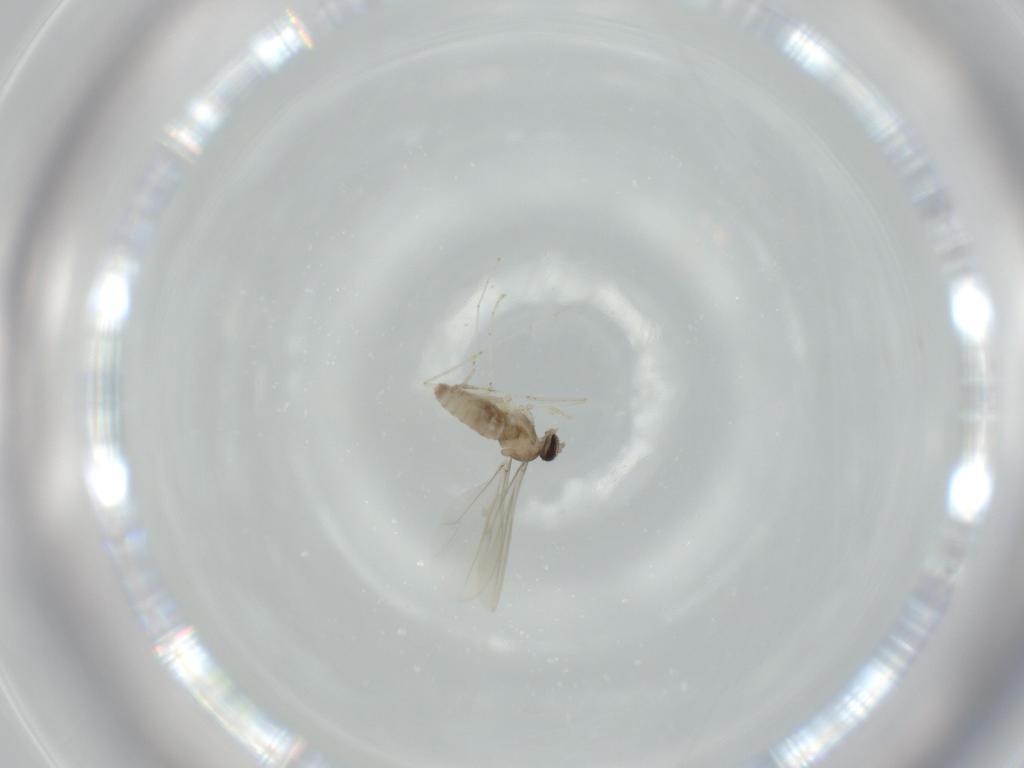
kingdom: Animalia
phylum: Arthropoda
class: Insecta
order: Diptera
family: Cecidomyiidae
